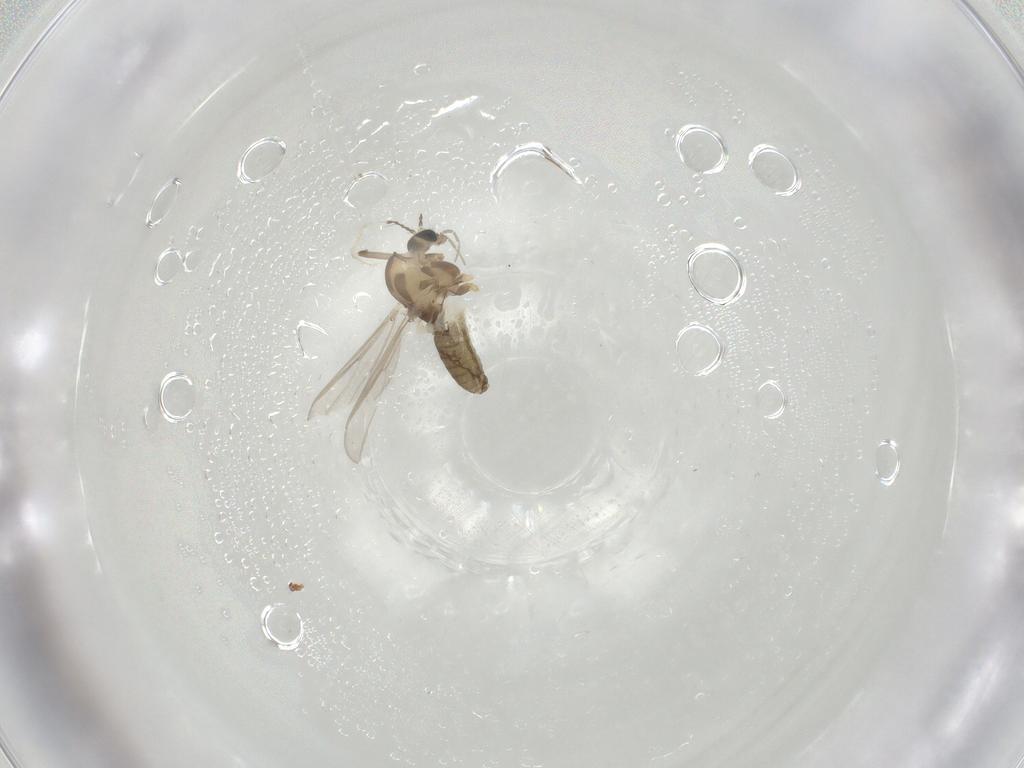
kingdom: Animalia
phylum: Arthropoda
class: Insecta
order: Diptera
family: Chironomidae
